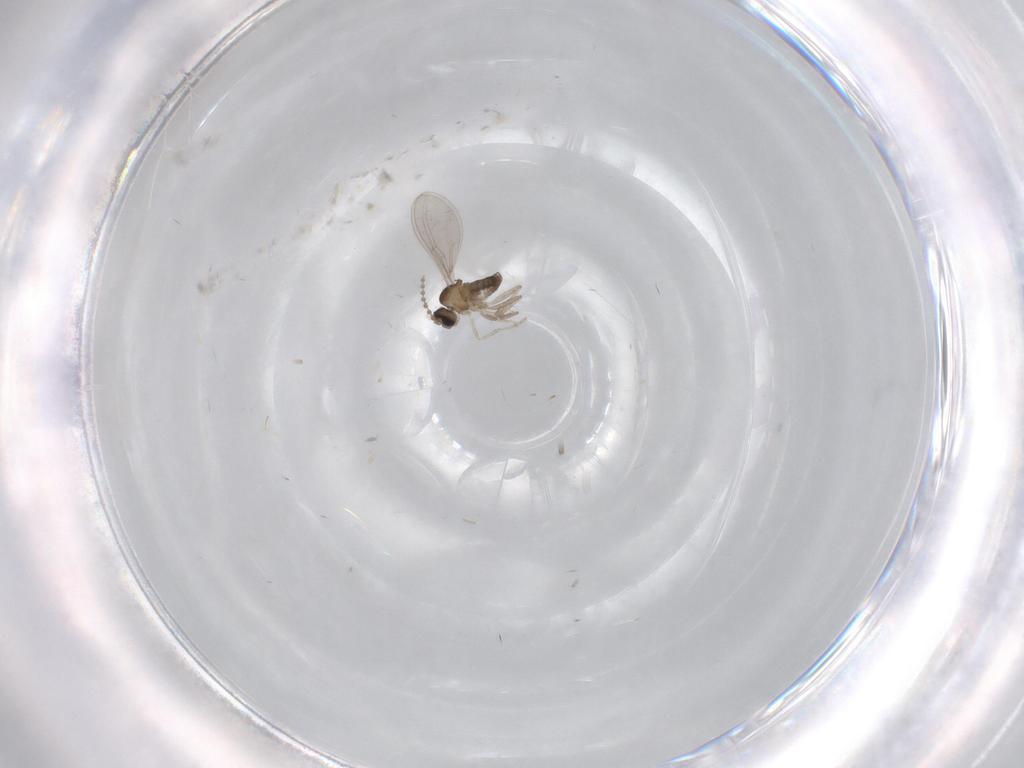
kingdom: Animalia
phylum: Arthropoda
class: Insecta
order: Diptera
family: Cecidomyiidae
